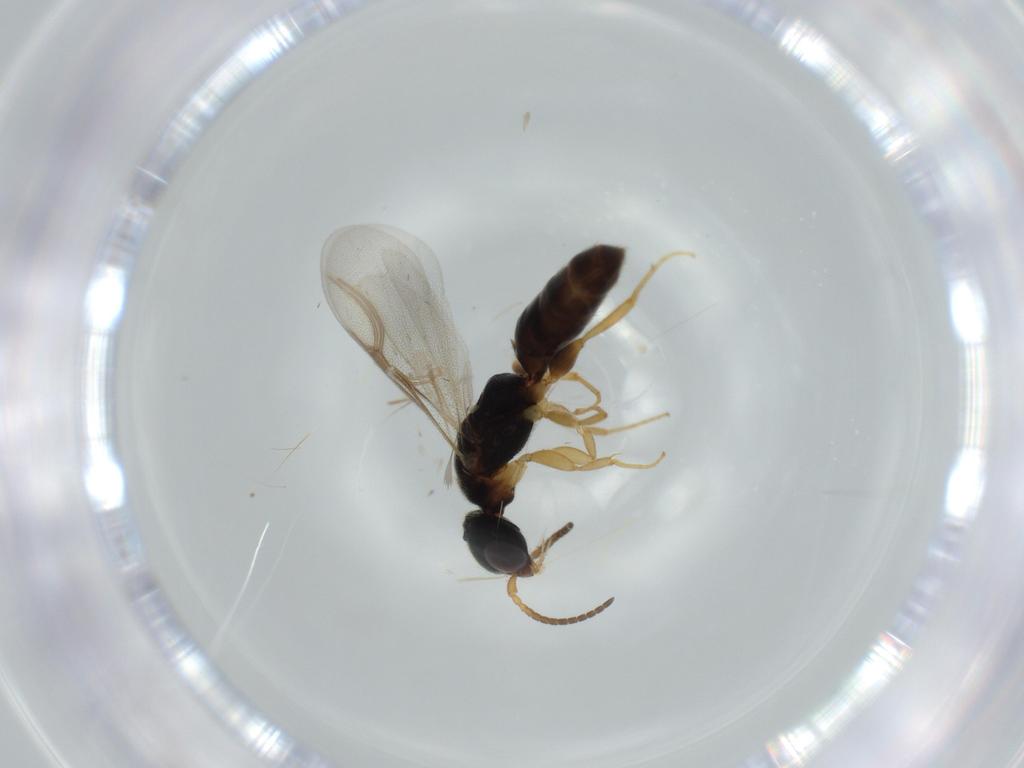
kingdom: Animalia
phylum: Arthropoda
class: Insecta
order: Hymenoptera
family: Bethylidae
